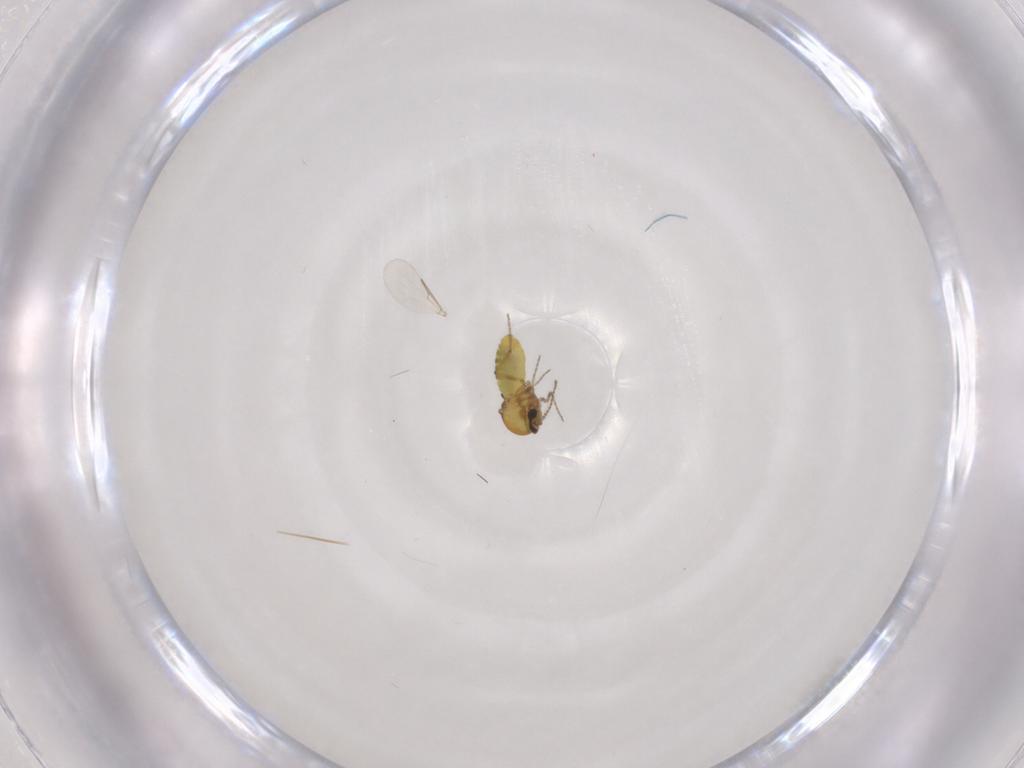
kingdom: Animalia
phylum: Arthropoda
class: Insecta
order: Diptera
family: Ceratopogonidae
